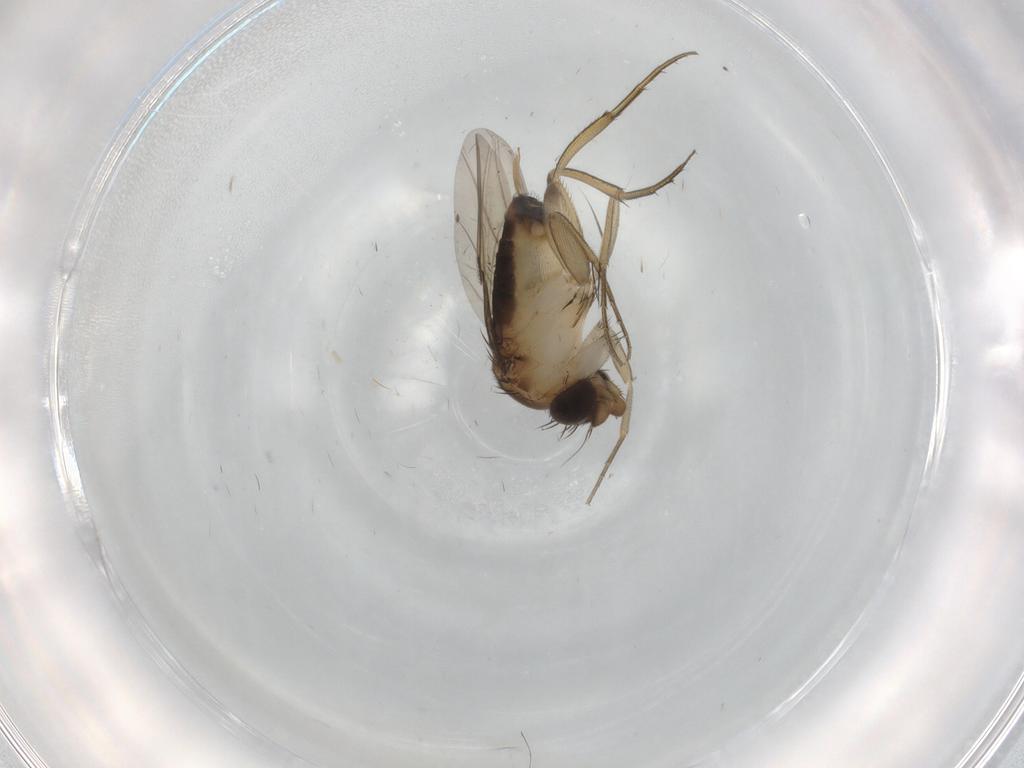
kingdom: Animalia
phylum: Arthropoda
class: Insecta
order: Diptera
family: Phoridae
